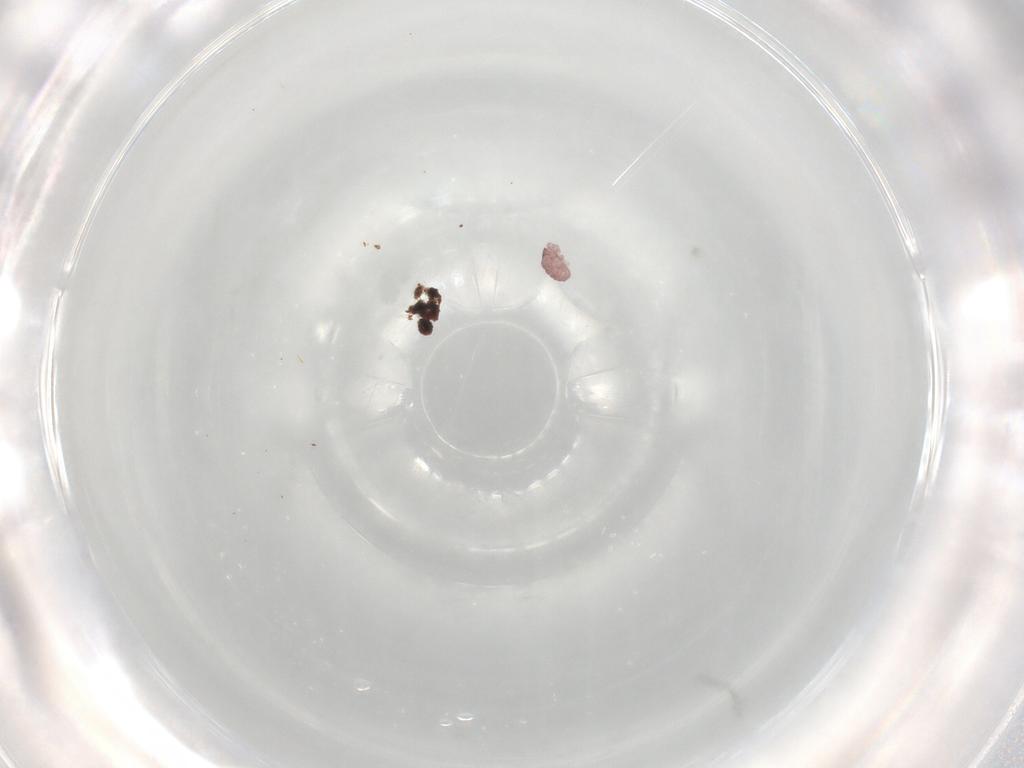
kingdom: Animalia
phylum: Arthropoda
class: Arachnida
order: Sarcoptiformes
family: Alycidae
